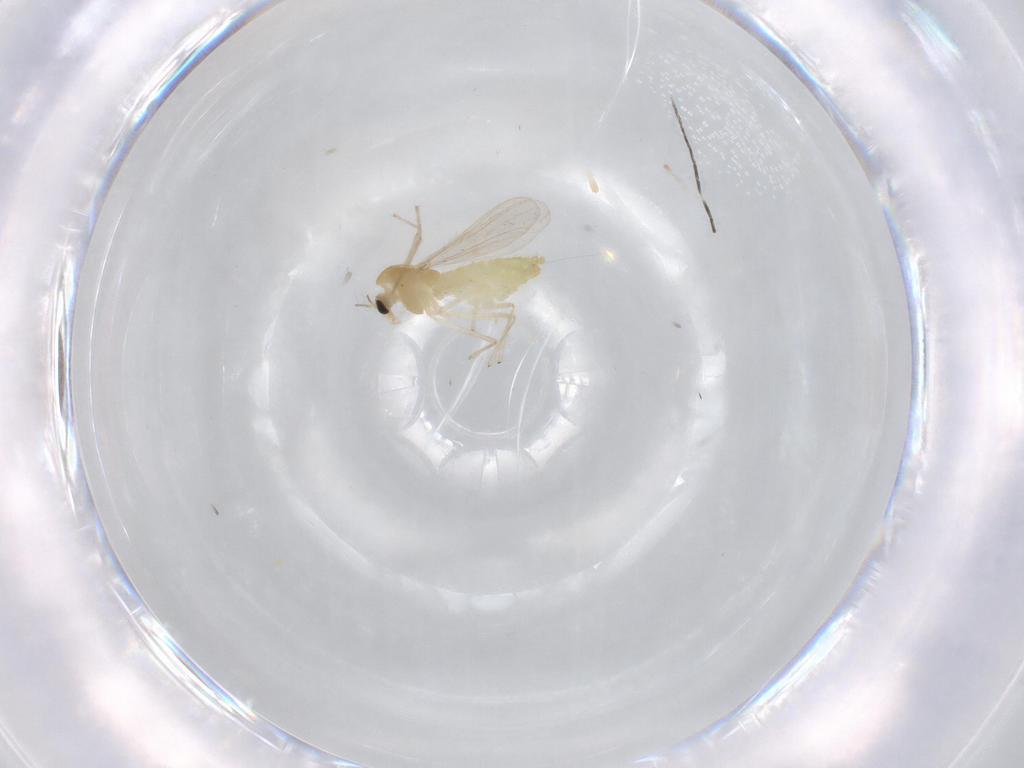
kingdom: Animalia
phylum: Arthropoda
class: Insecta
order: Diptera
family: Chironomidae
